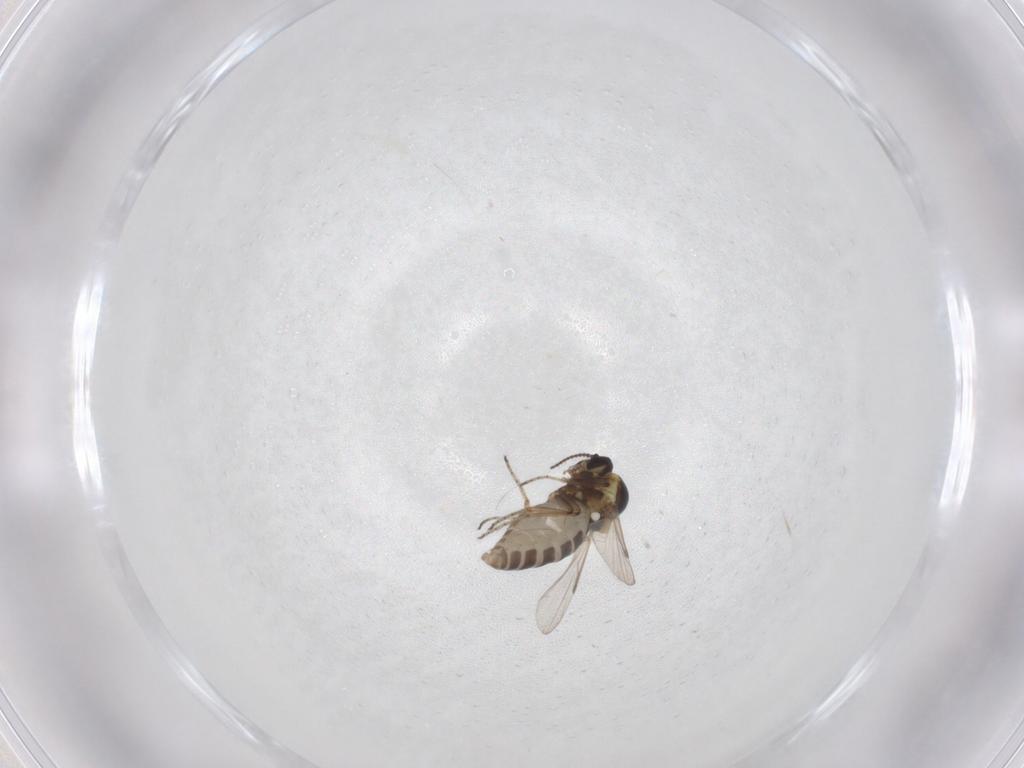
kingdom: Animalia
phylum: Arthropoda
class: Insecta
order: Diptera
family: Ceratopogonidae
